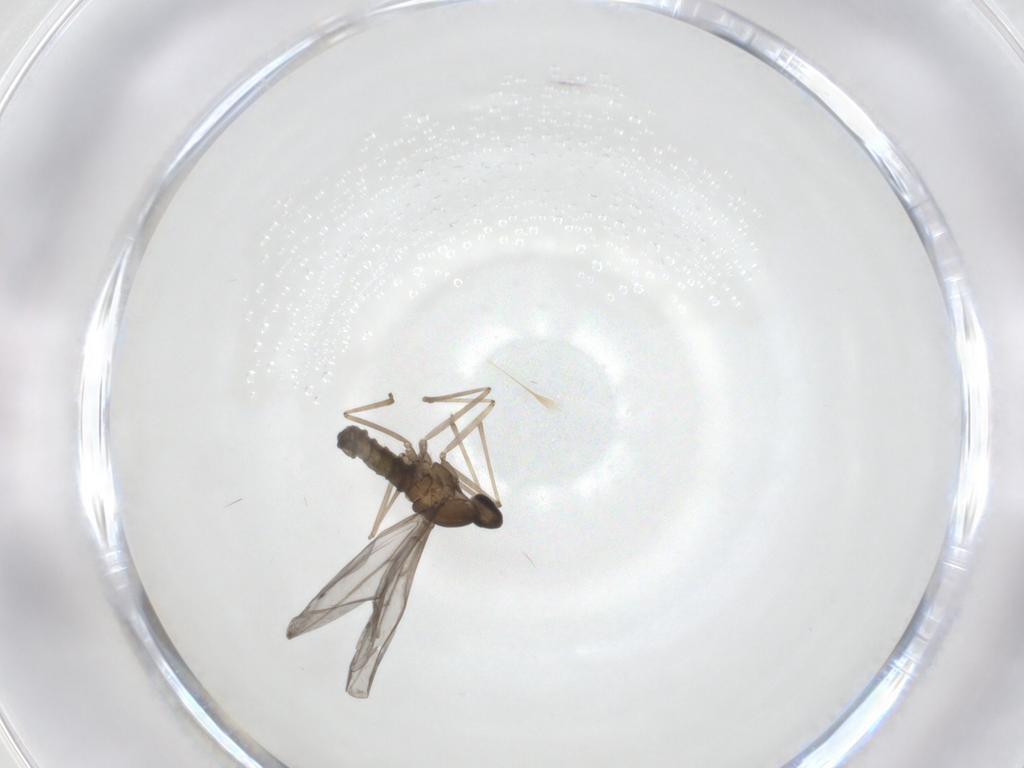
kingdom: Animalia
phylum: Arthropoda
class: Insecta
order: Diptera
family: Cecidomyiidae
